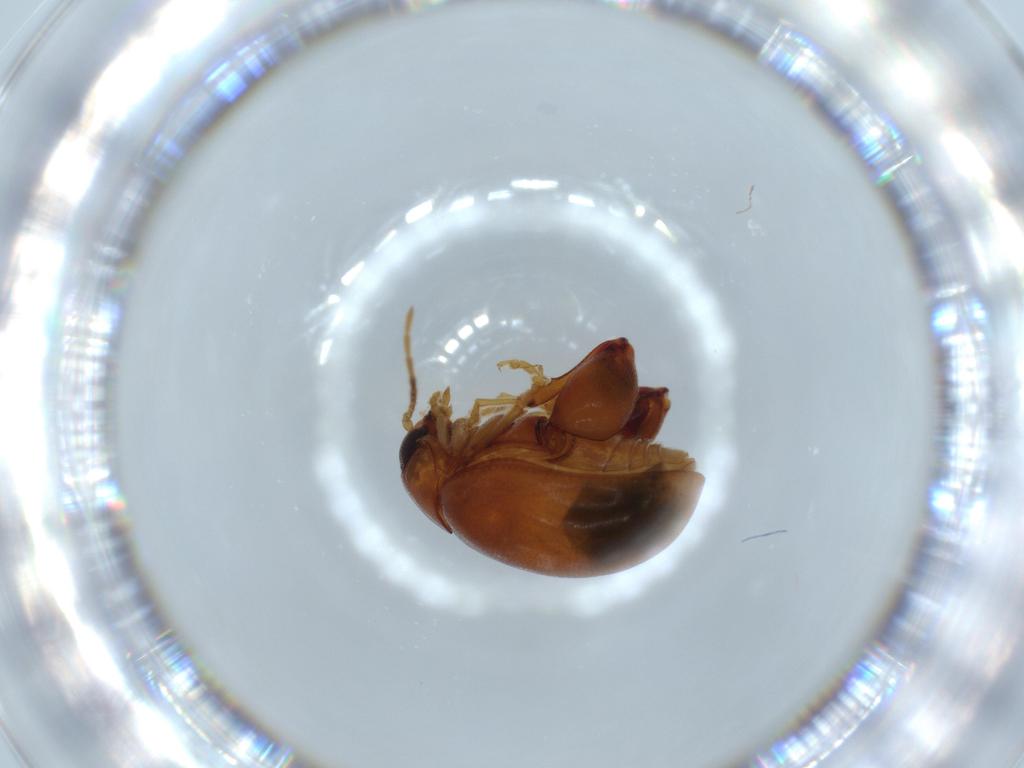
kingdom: Animalia
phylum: Arthropoda
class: Insecta
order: Coleoptera
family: Chrysomelidae
